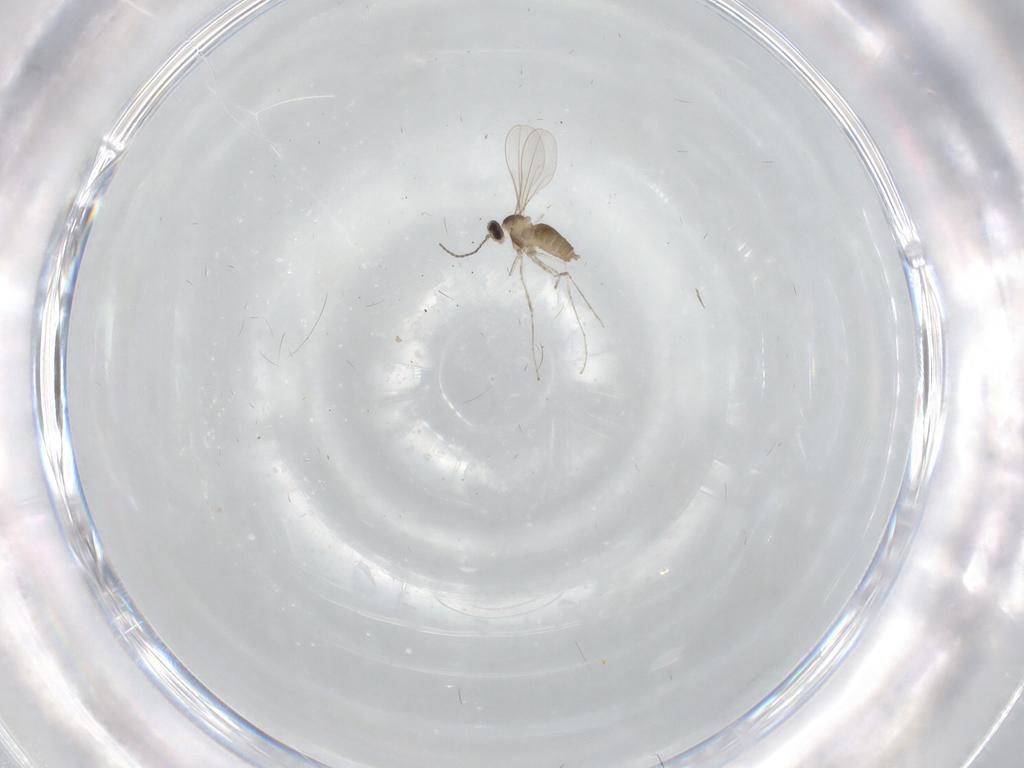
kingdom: Animalia
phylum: Arthropoda
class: Insecta
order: Diptera
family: Cecidomyiidae
